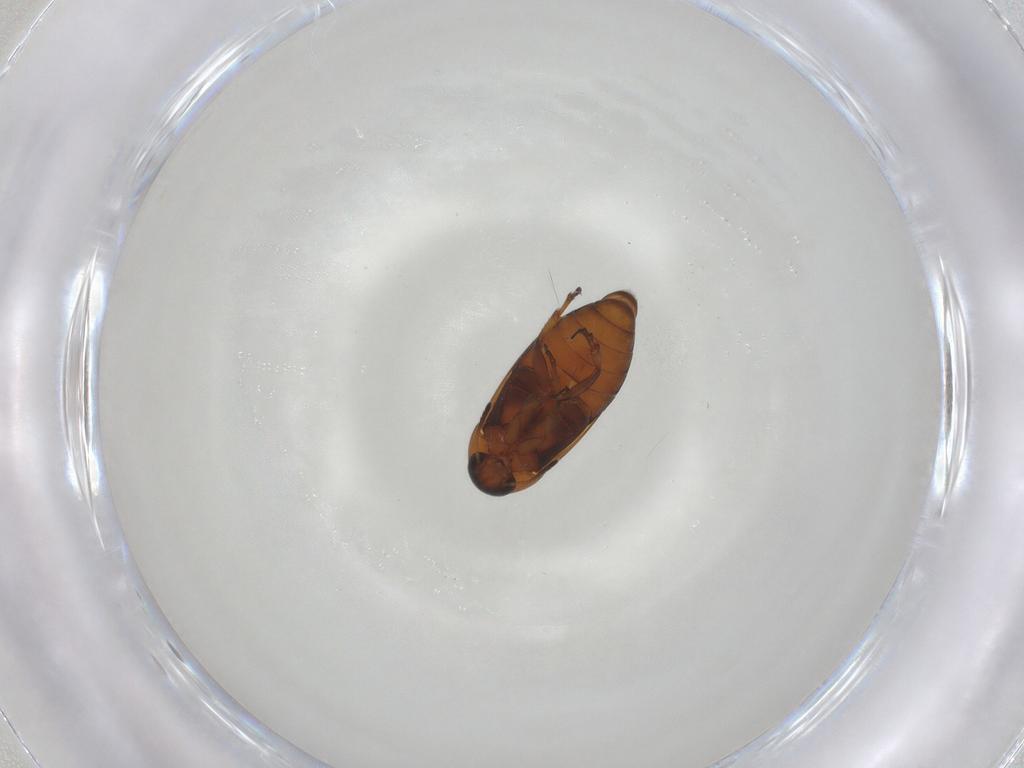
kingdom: Animalia
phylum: Arthropoda
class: Insecta
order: Coleoptera
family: Scraptiidae
